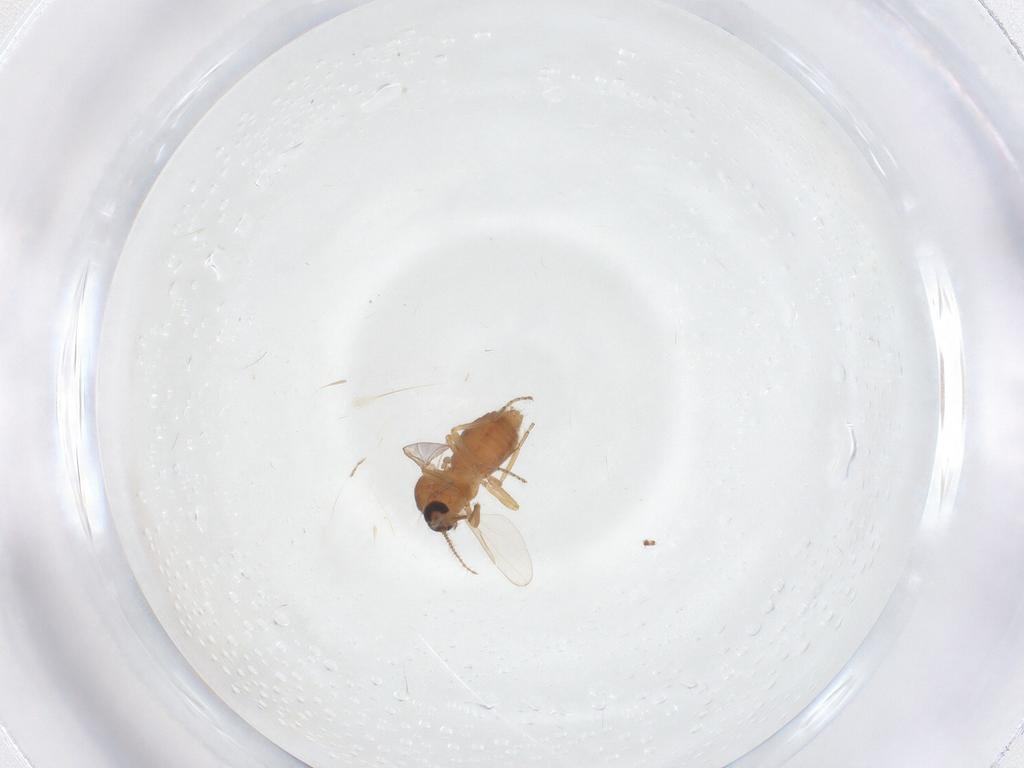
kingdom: Animalia
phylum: Arthropoda
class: Insecta
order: Diptera
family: Ceratopogonidae
